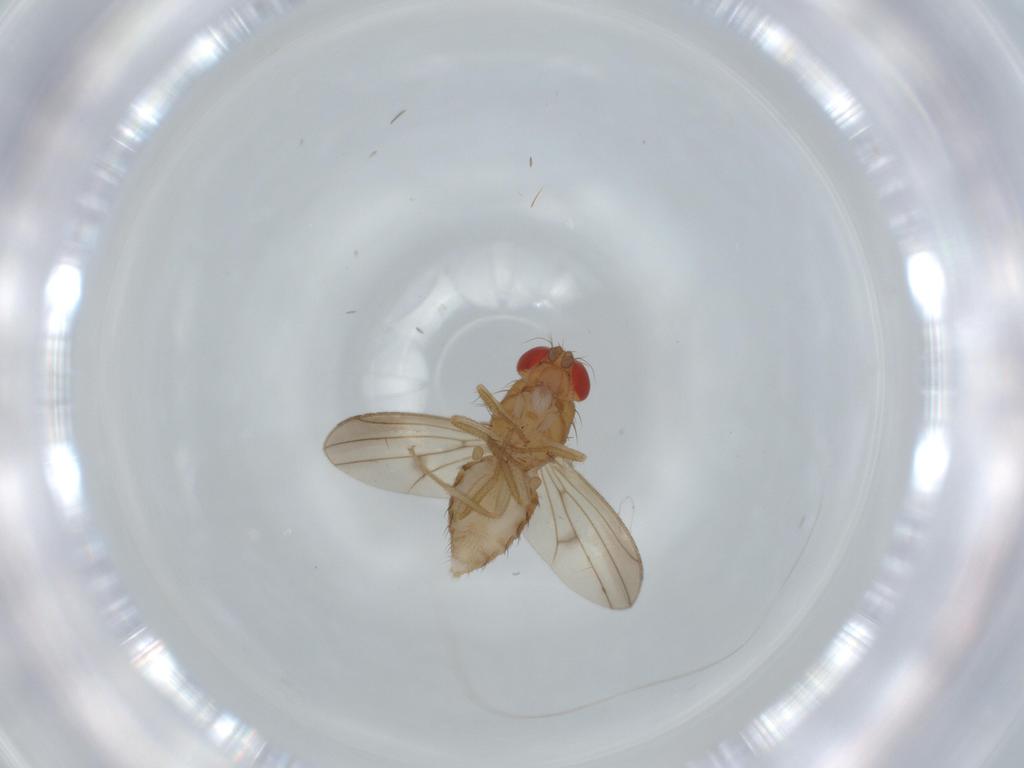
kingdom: Animalia
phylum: Arthropoda
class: Insecta
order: Diptera
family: Drosophilidae
